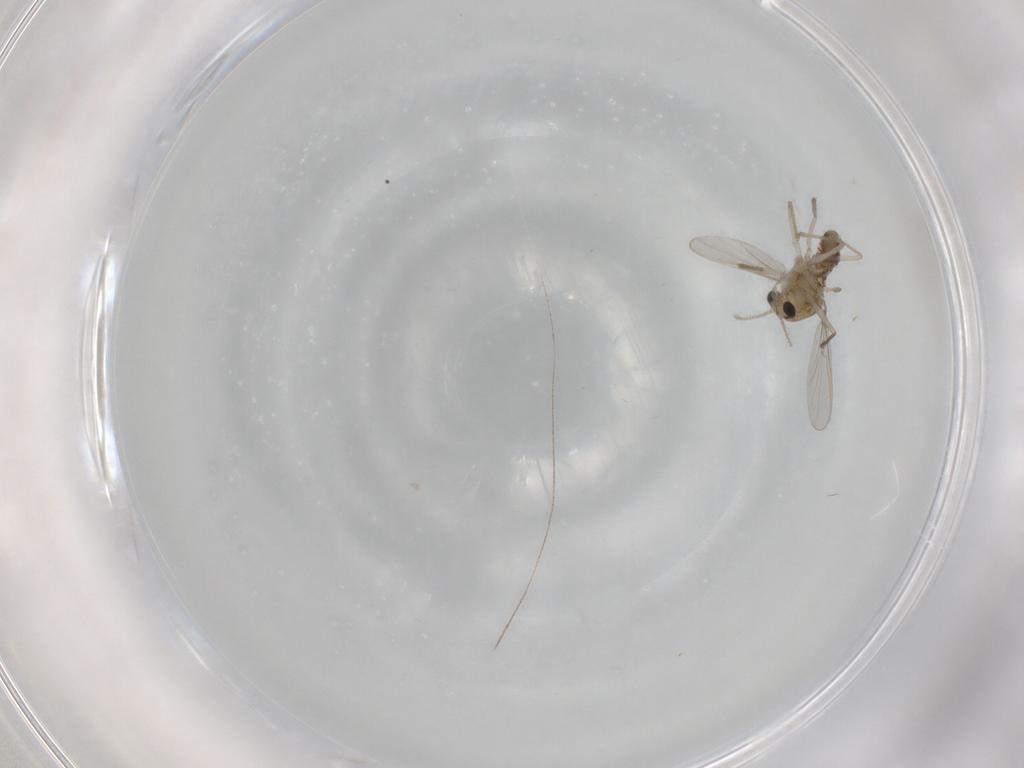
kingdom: Animalia
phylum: Arthropoda
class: Insecta
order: Diptera
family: Chironomidae
